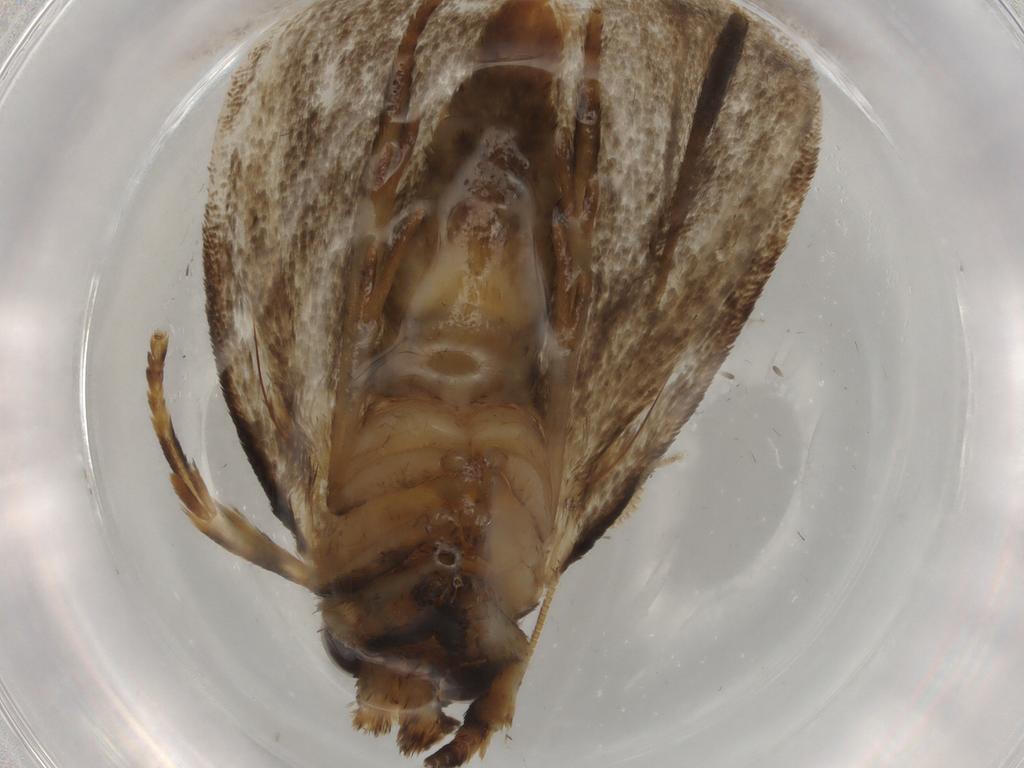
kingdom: Animalia
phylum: Arthropoda
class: Insecta
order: Lepidoptera
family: Tineidae
